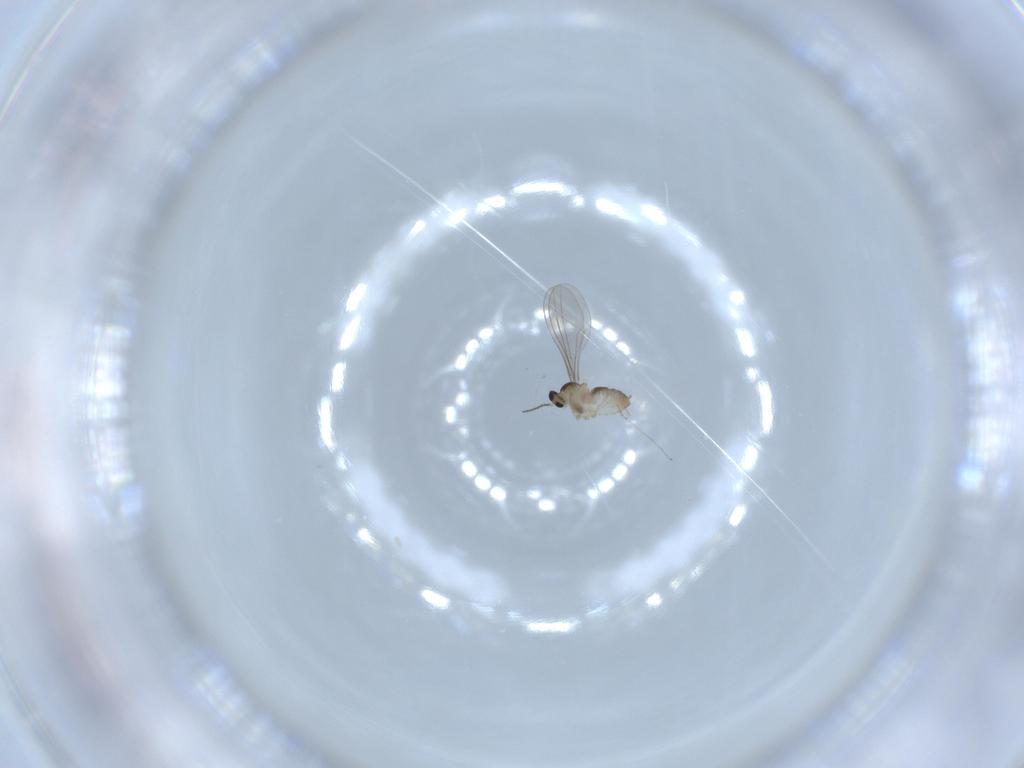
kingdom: Animalia
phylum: Arthropoda
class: Insecta
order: Diptera
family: Cecidomyiidae
